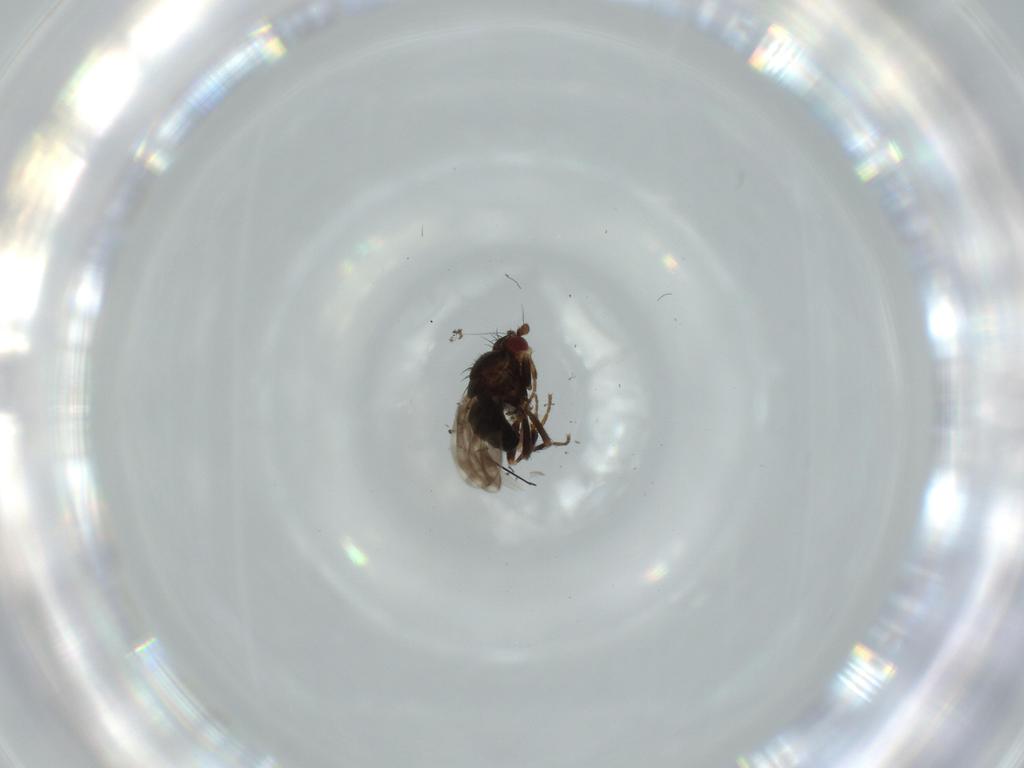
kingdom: Animalia
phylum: Arthropoda
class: Insecta
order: Diptera
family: Sphaeroceridae
